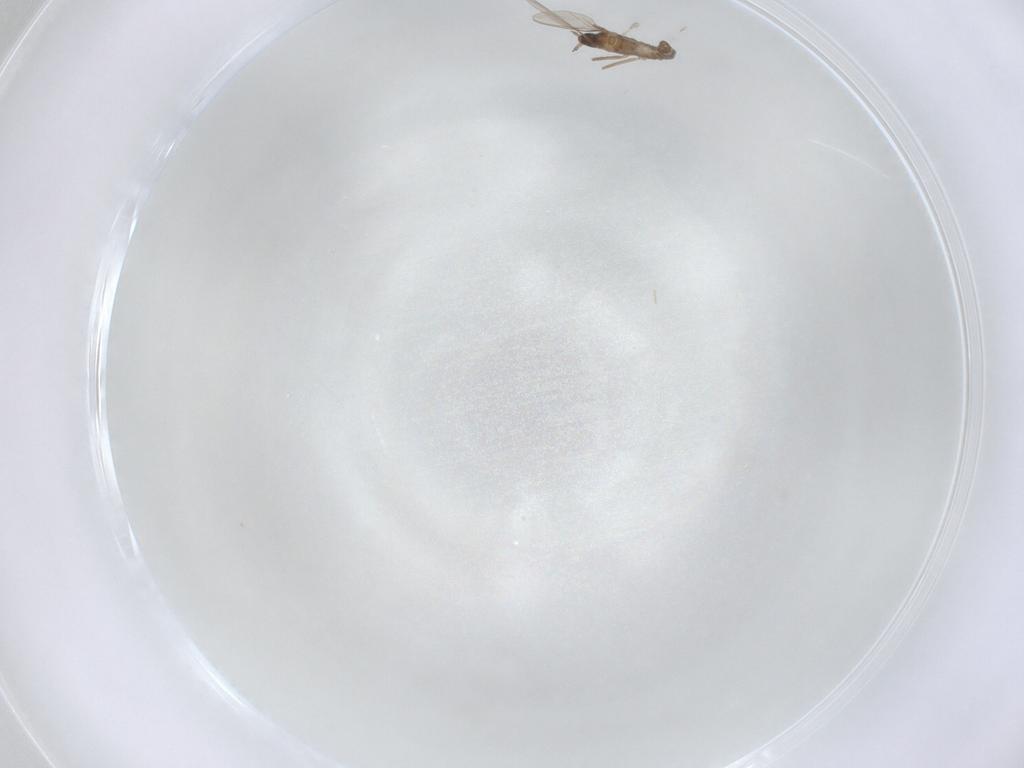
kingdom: Animalia
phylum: Arthropoda
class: Insecta
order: Diptera
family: Cecidomyiidae
